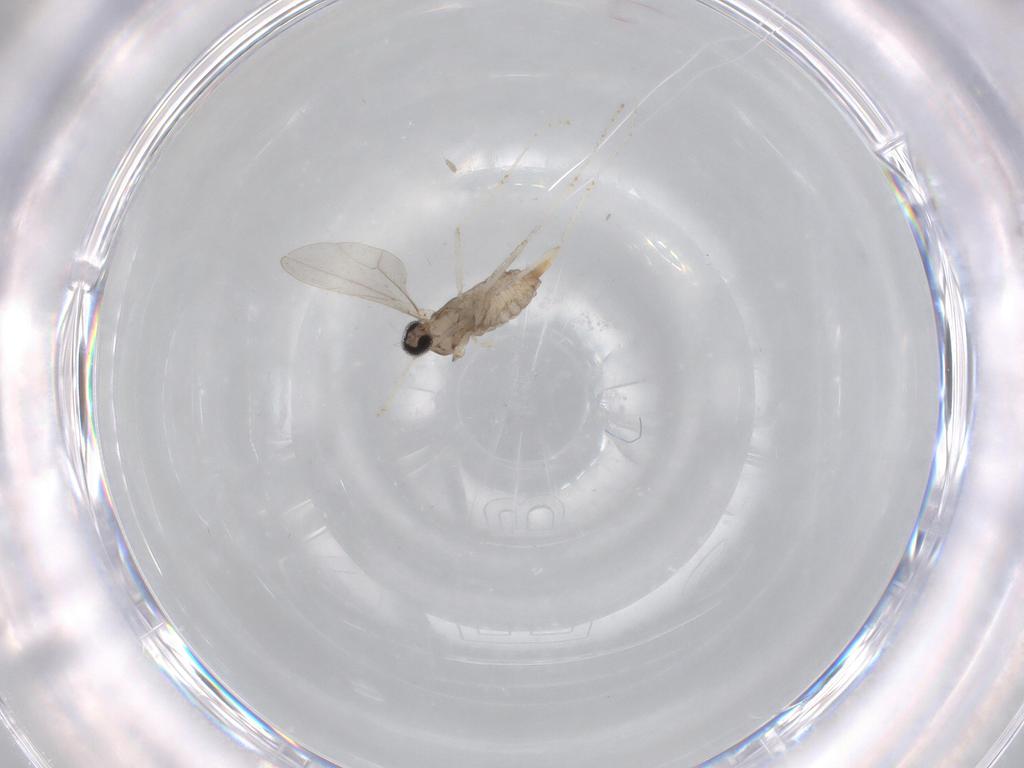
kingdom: Animalia
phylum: Arthropoda
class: Insecta
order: Diptera
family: Cecidomyiidae
